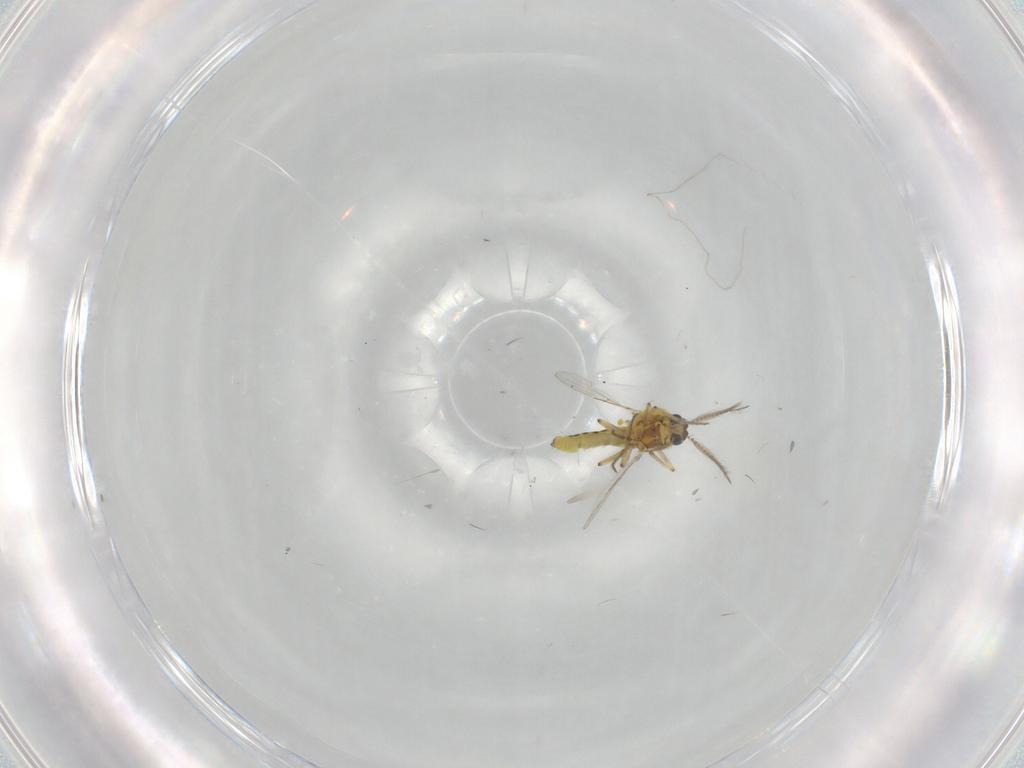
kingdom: Animalia
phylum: Arthropoda
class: Insecta
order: Diptera
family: Ceratopogonidae
